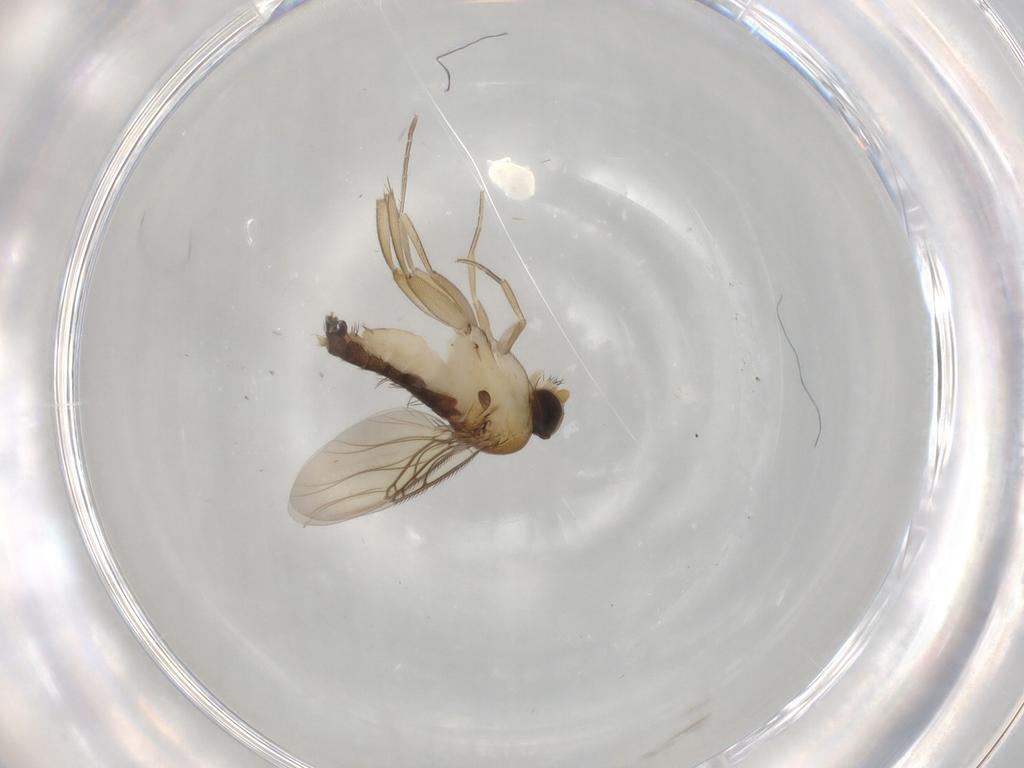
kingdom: Animalia
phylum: Arthropoda
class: Insecta
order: Diptera
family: Phoridae
